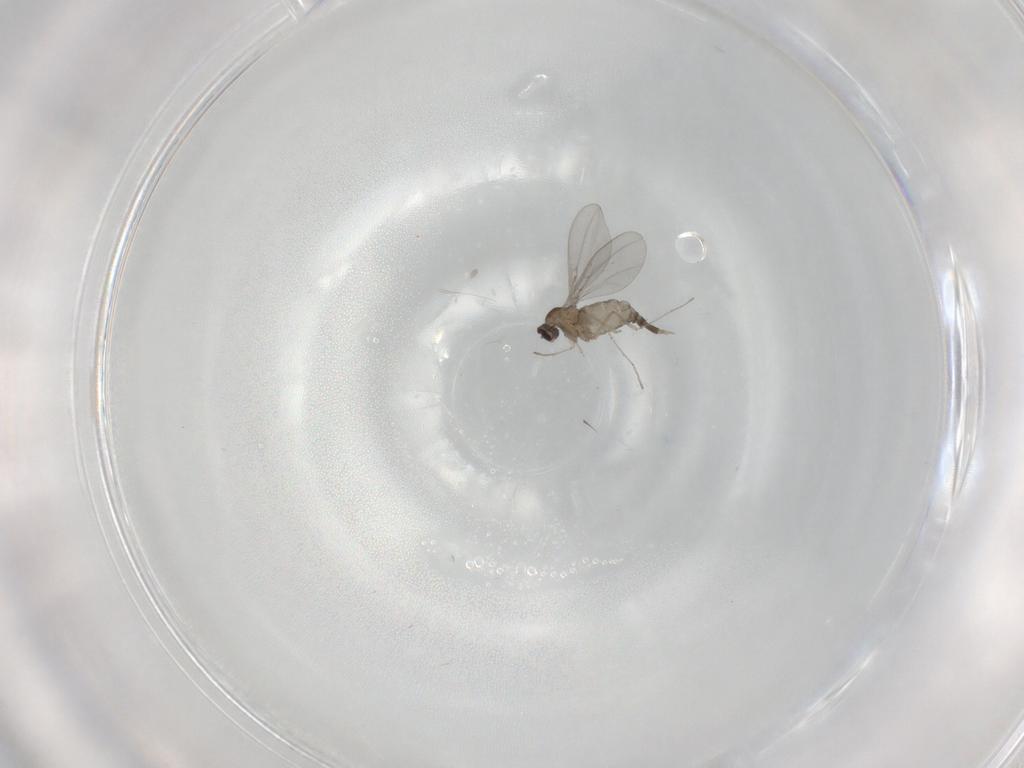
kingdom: Animalia
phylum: Arthropoda
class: Insecta
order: Diptera
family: Cecidomyiidae
